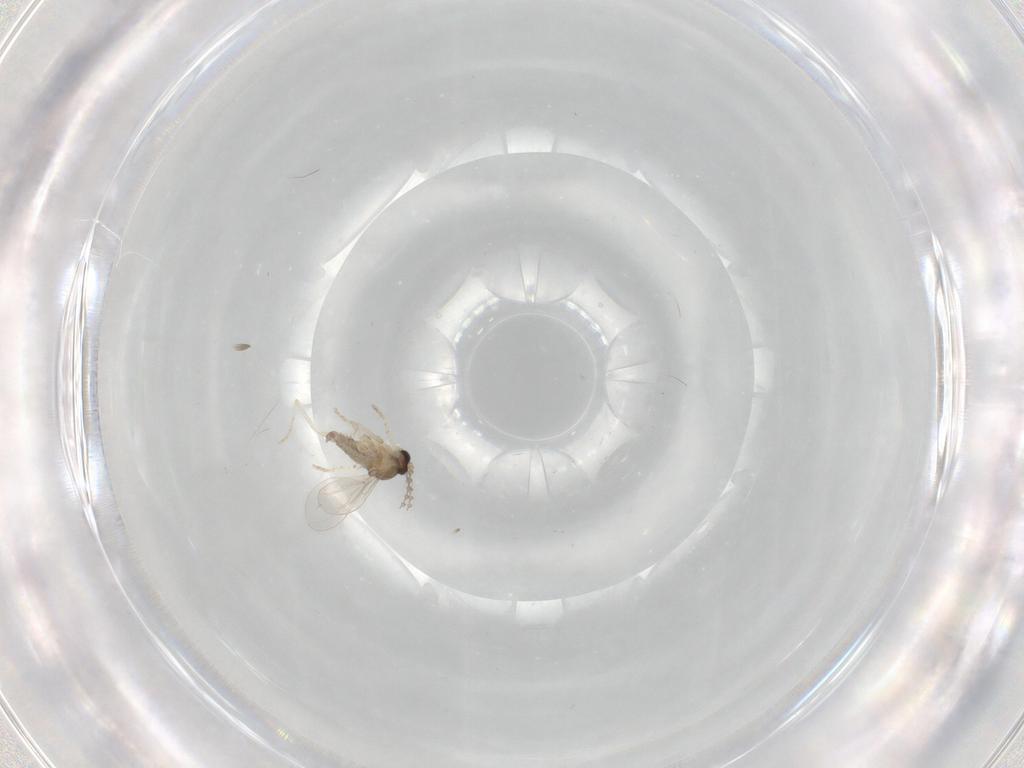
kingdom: Animalia
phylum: Arthropoda
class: Insecta
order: Diptera
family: Cecidomyiidae
